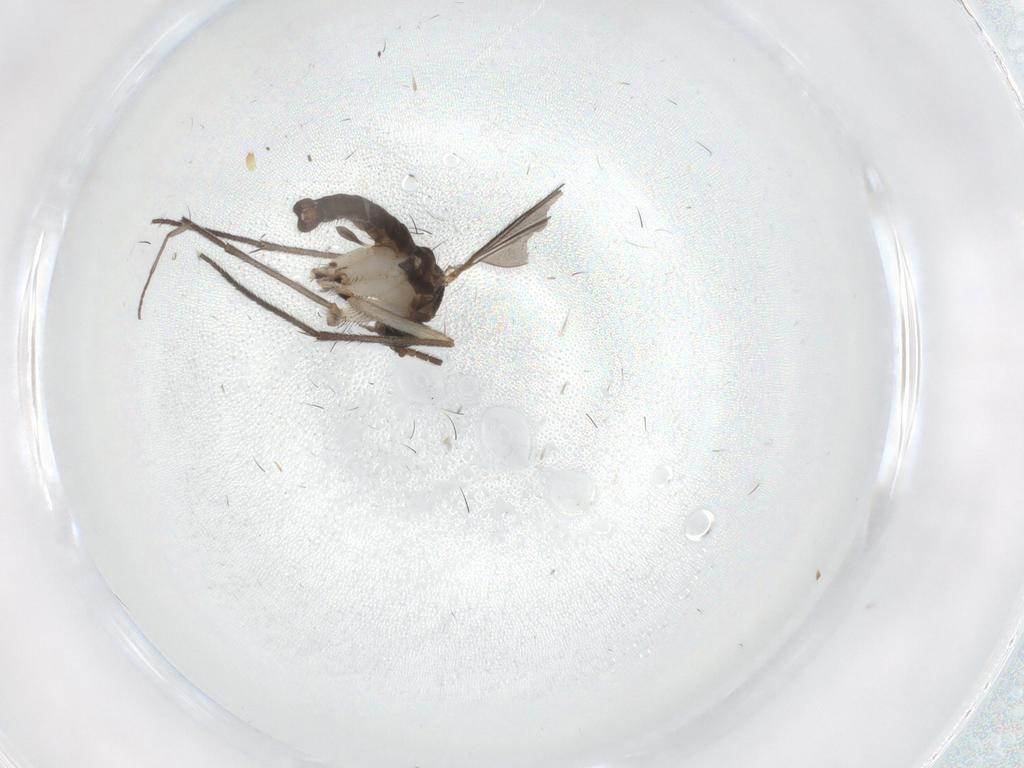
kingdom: Animalia
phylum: Arthropoda
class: Insecta
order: Diptera
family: Sciaridae
